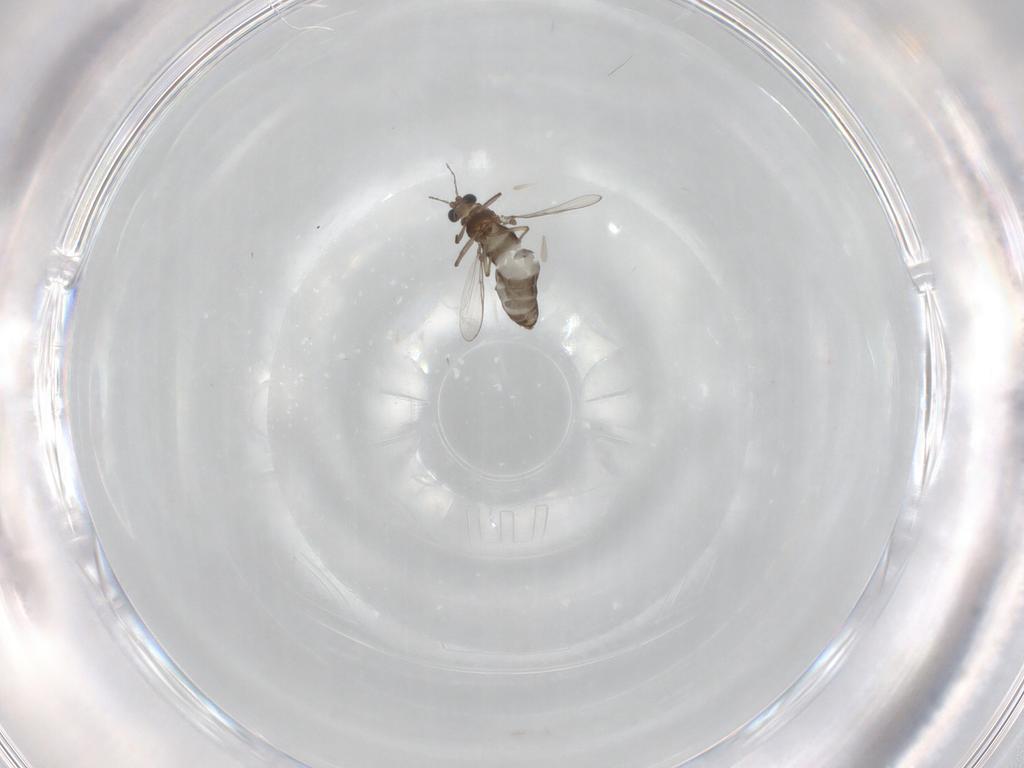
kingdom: Animalia
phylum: Arthropoda
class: Insecta
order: Diptera
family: Chironomidae
